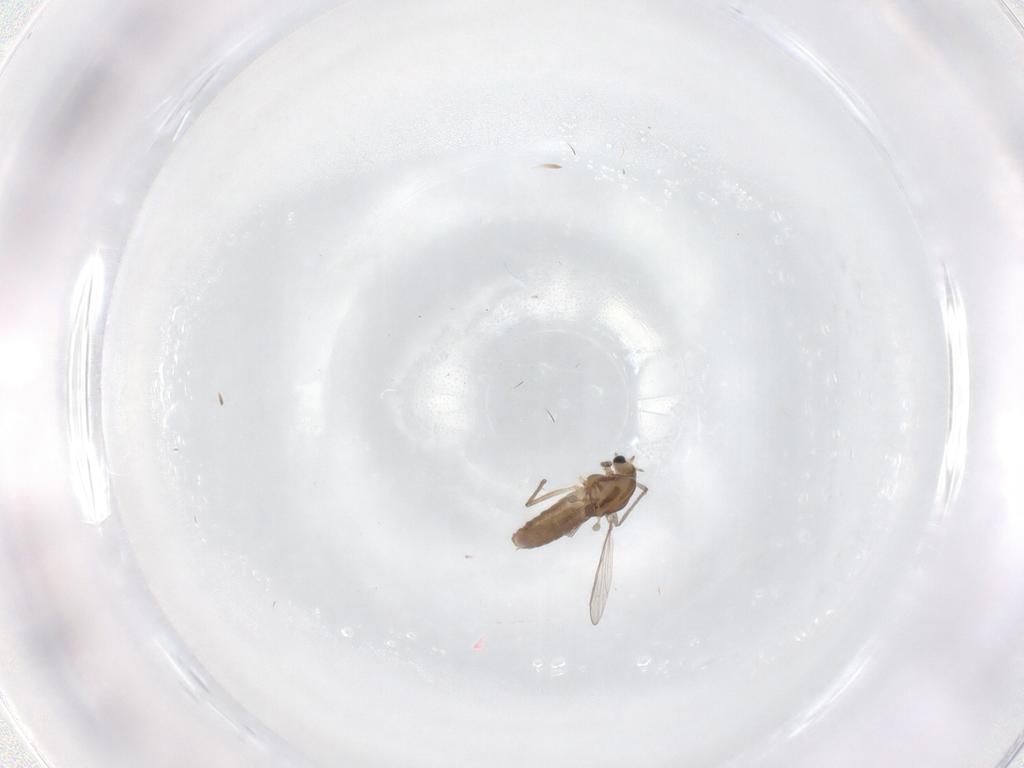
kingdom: Animalia
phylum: Arthropoda
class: Insecta
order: Diptera
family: Chironomidae
